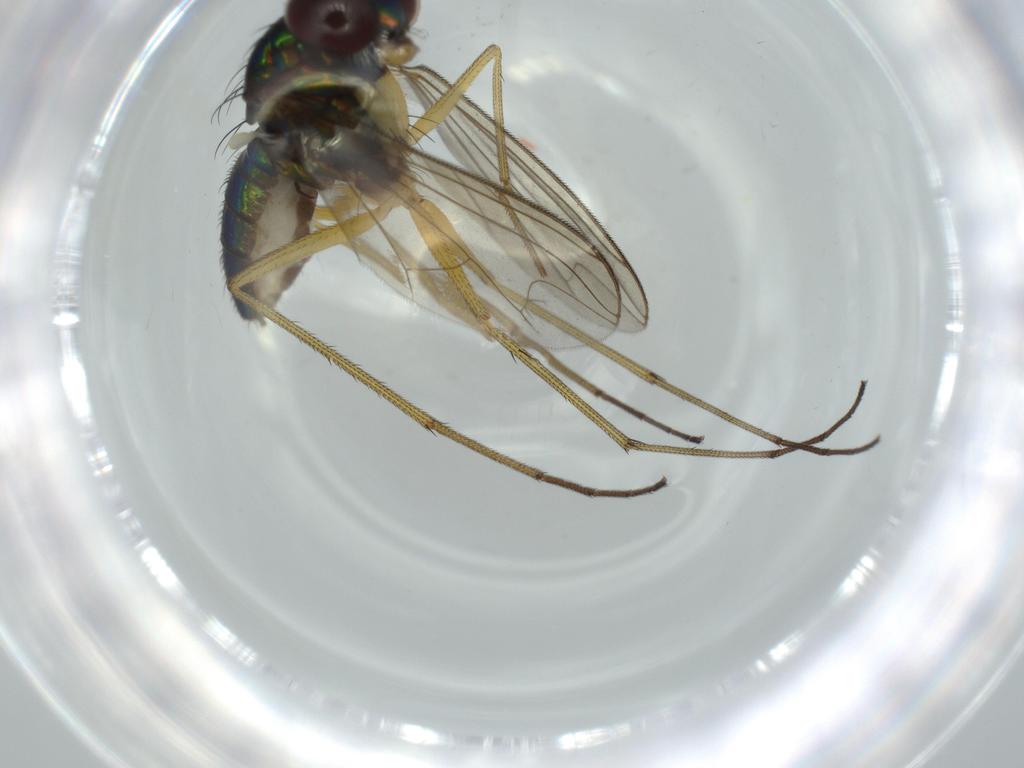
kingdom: Animalia
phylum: Arthropoda
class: Insecta
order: Diptera
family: Dolichopodidae
